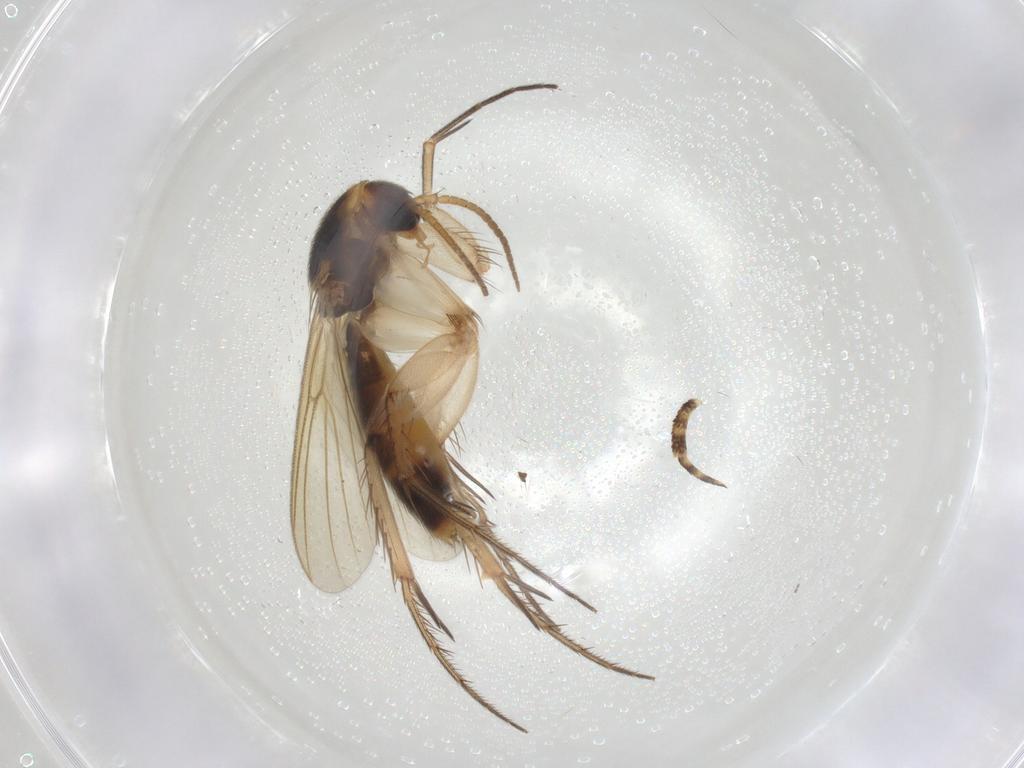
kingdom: Animalia
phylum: Arthropoda
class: Insecta
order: Diptera
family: Mycetophilidae
